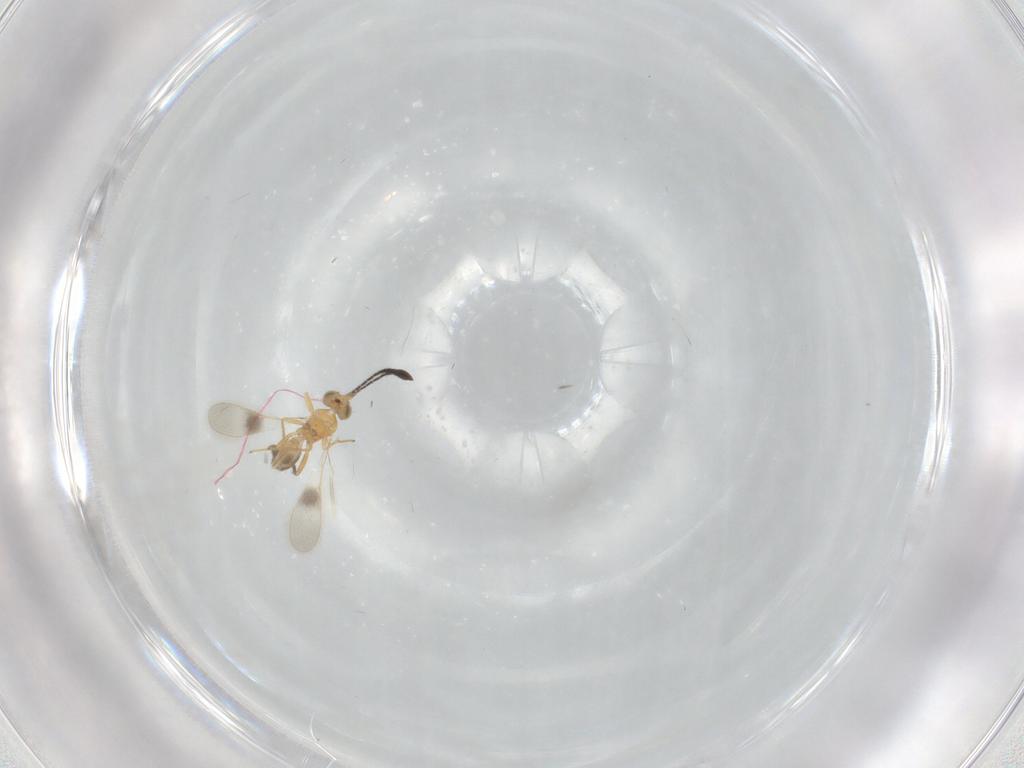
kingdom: Animalia
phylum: Arthropoda
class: Insecta
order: Hymenoptera
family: Mymaridae
